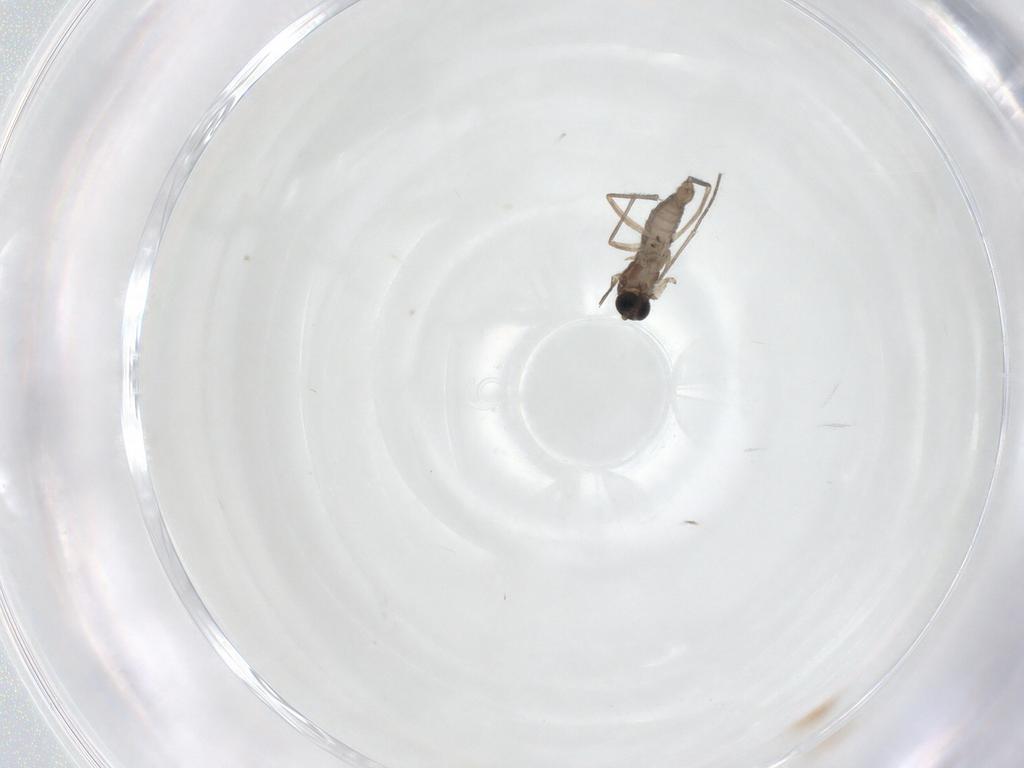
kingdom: Animalia
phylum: Arthropoda
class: Insecta
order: Diptera
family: Sciaridae
